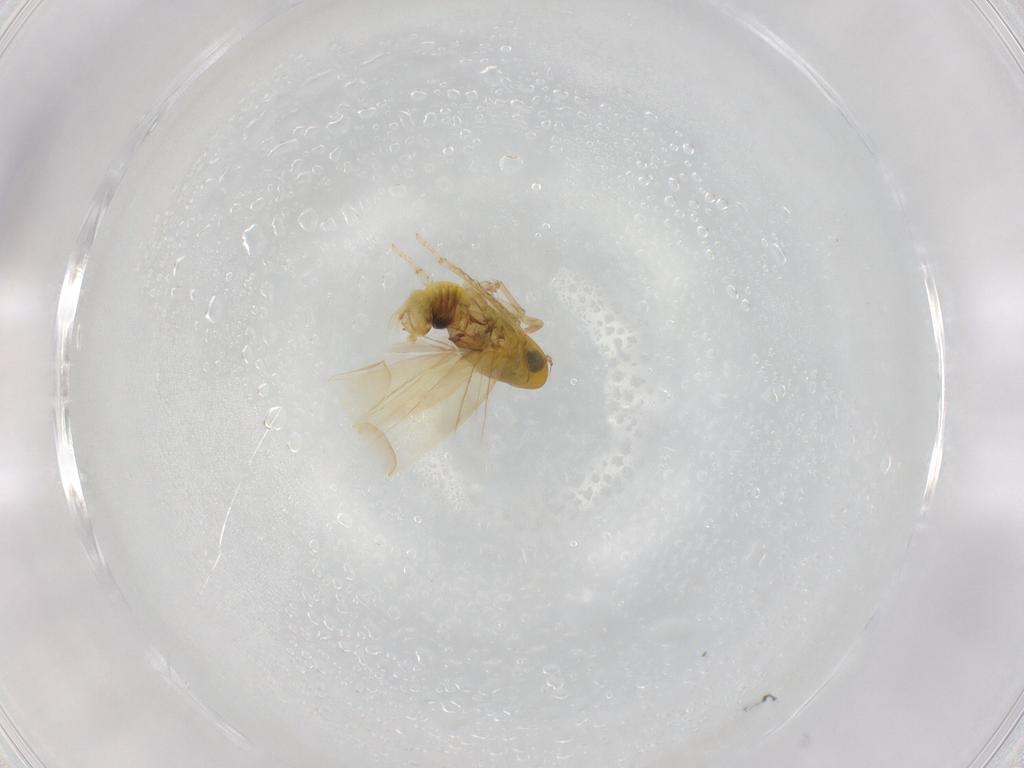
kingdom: Animalia
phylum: Arthropoda
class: Insecta
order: Hemiptera
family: Cicadellidae
